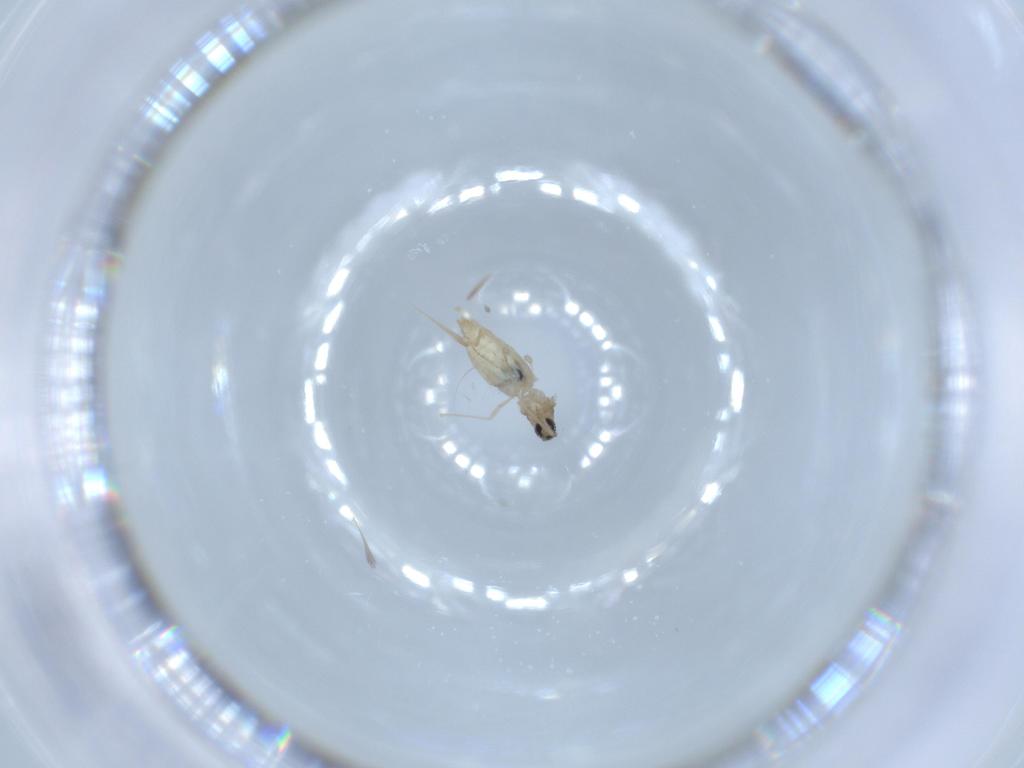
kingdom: Animalia
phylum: Arthropoda
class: Insecta
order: Diptera
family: Cecidomyiidae
